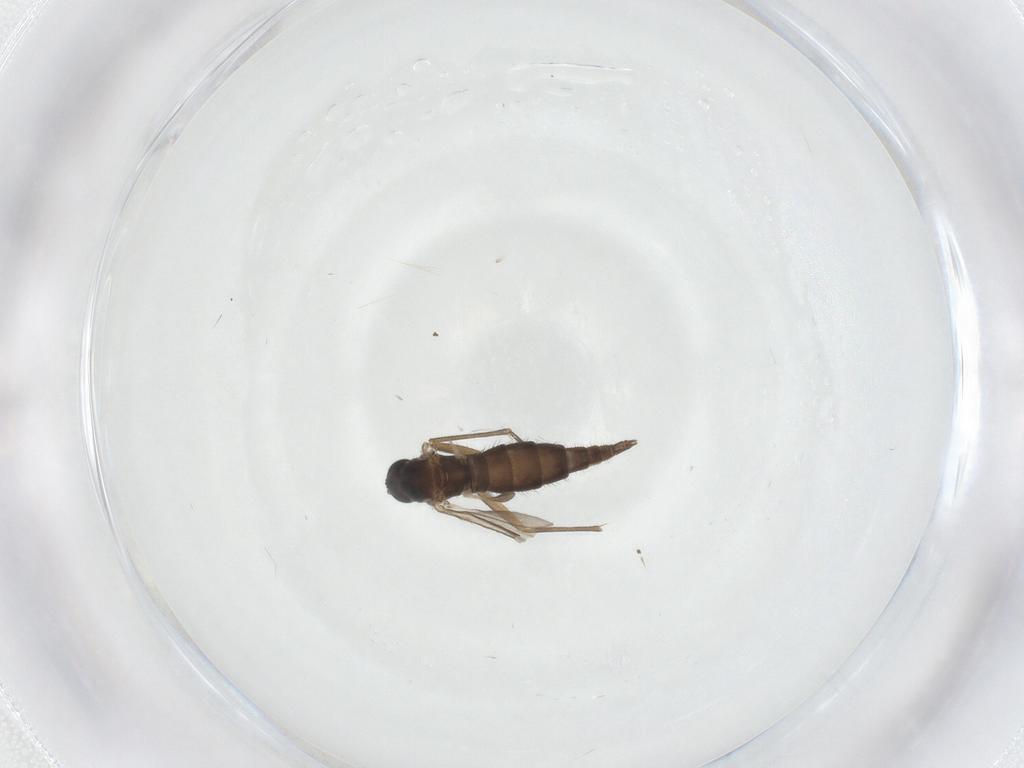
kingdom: Animalia
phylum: Arthropoda
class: Insecta
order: Diptera
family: Sciaridae
